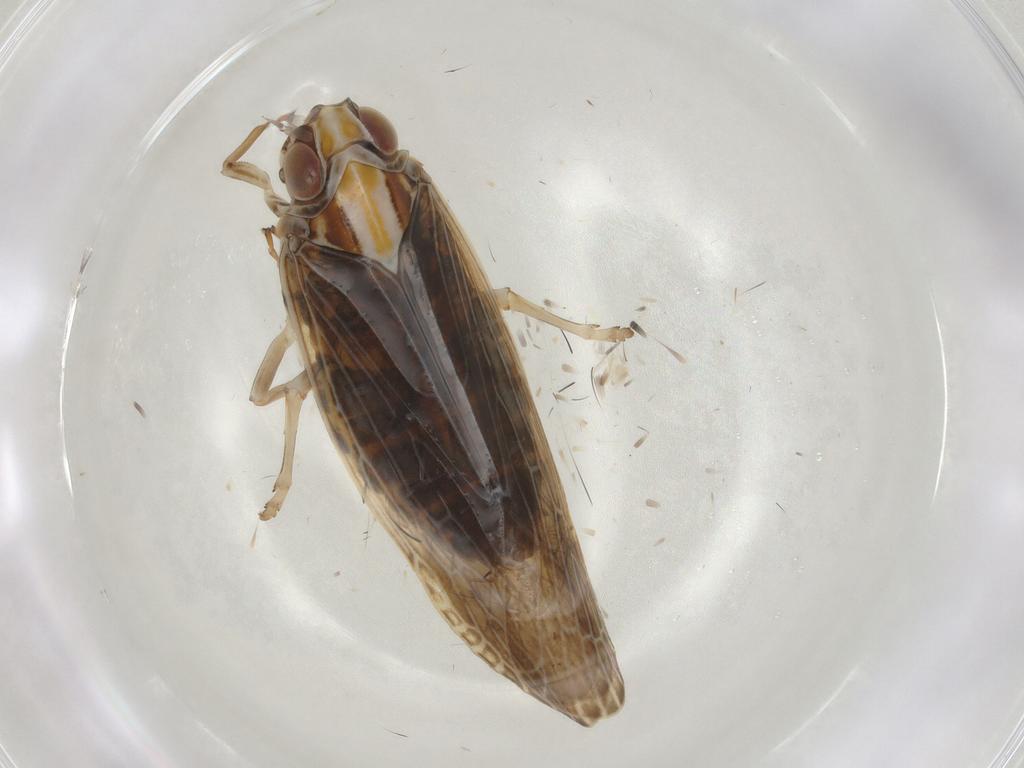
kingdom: Animalia
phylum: Arthropoda
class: Insecta
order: Hemiptera
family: Achilidae
